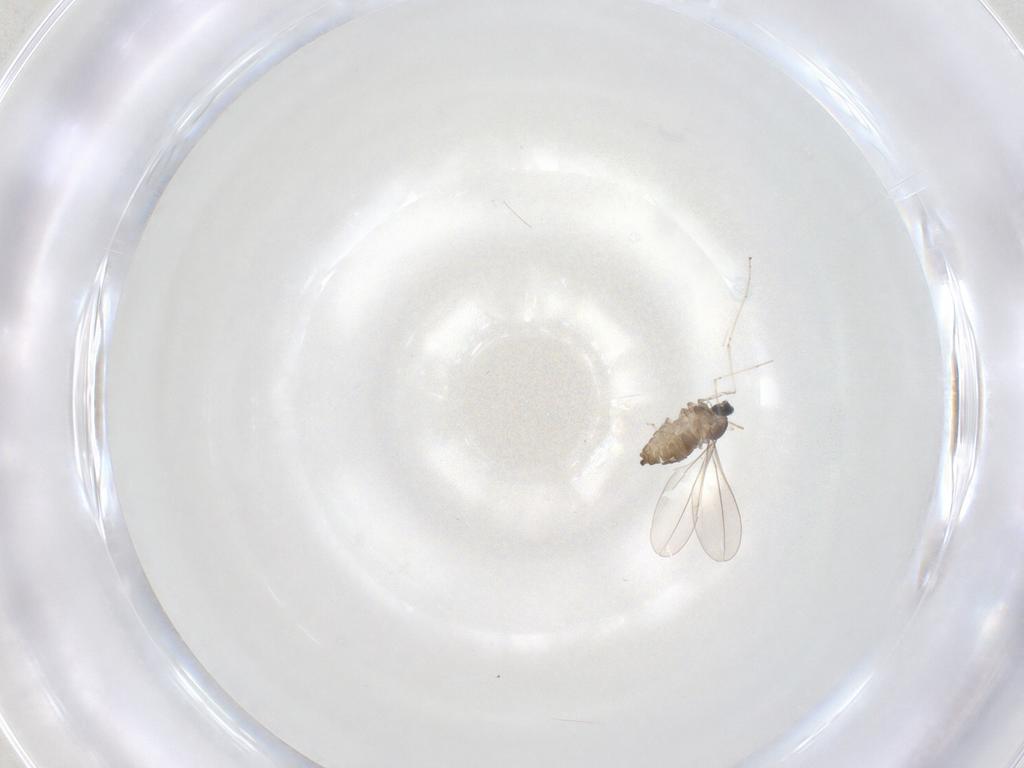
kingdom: Animalia
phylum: Arthropoda
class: Insecta
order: Diptera
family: Cecidomyiidae
